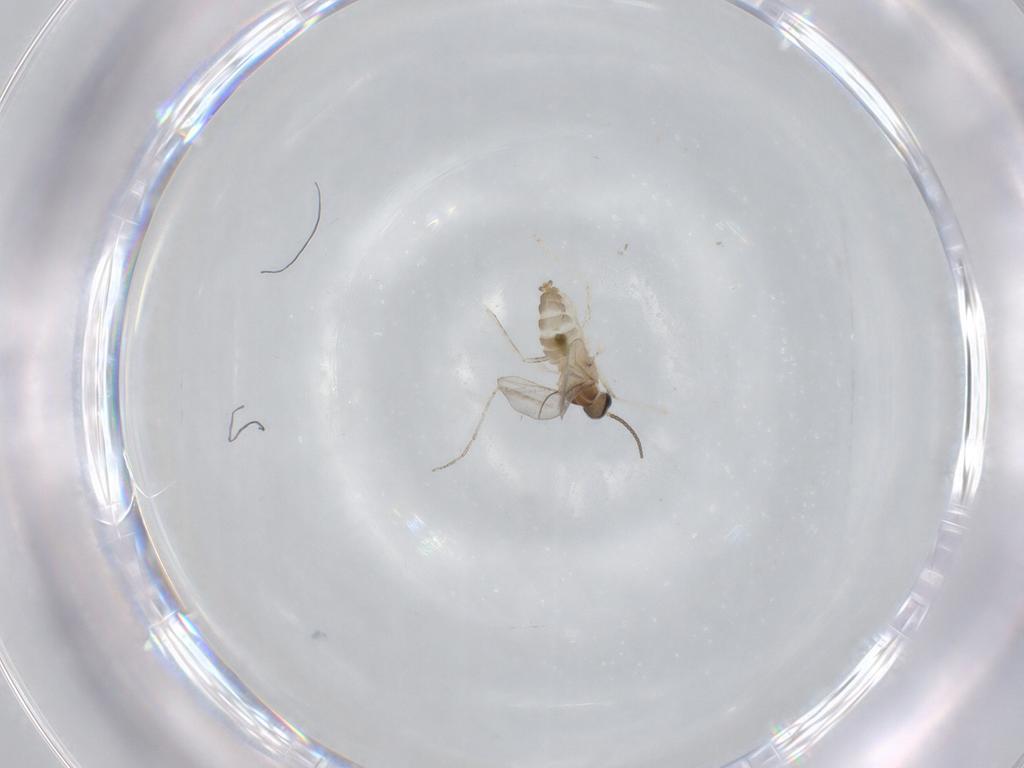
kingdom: Animalia
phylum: Arthropoda
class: Insecta
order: Diptera
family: Cecidomyiidae
